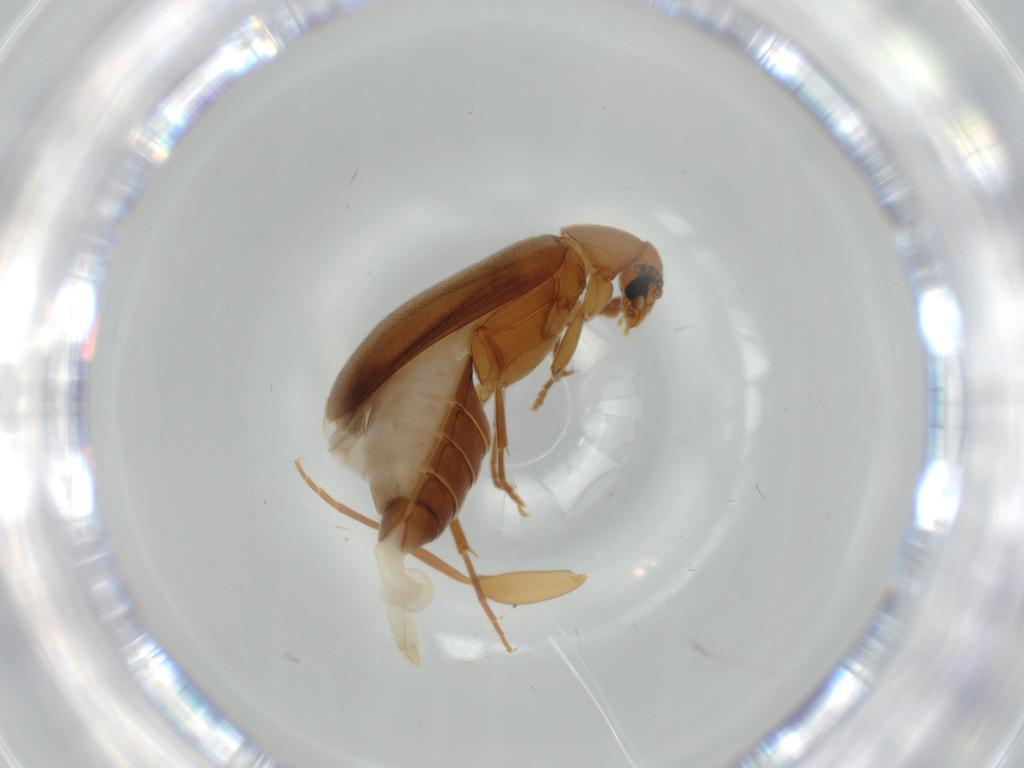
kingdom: Animalia
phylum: Arthropoda
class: Insecta
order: Coleoptera
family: Scraptiidae
